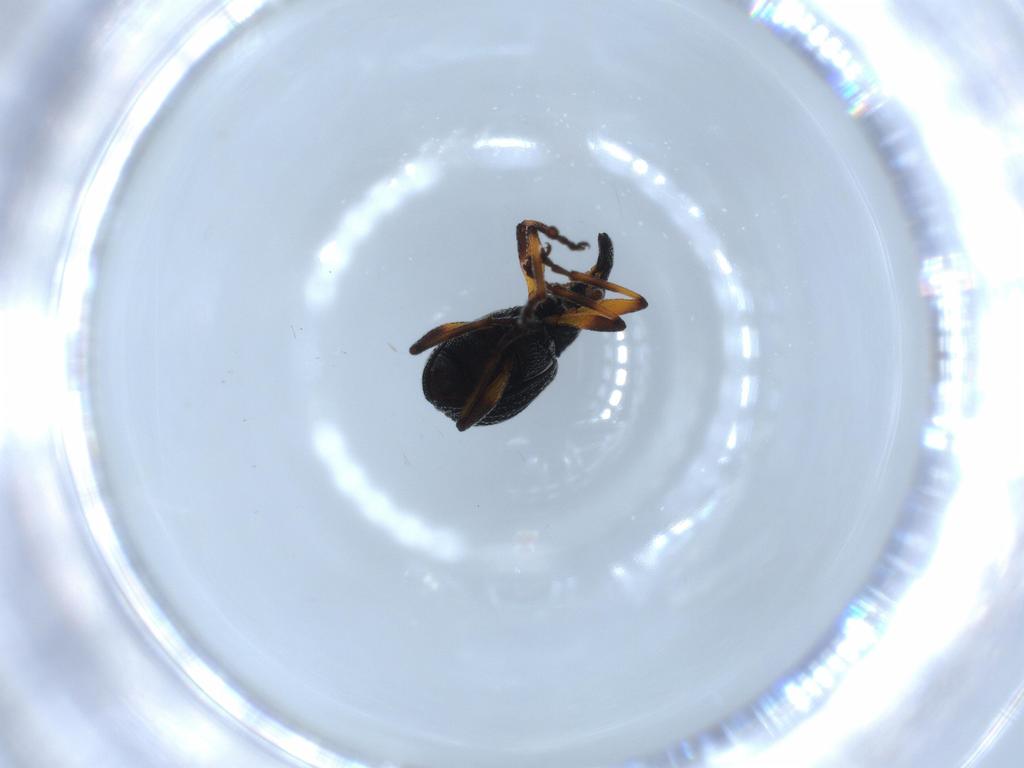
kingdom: Animalia
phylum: Arthropoda
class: Insecta
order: Coleoptera
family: Brentidae
